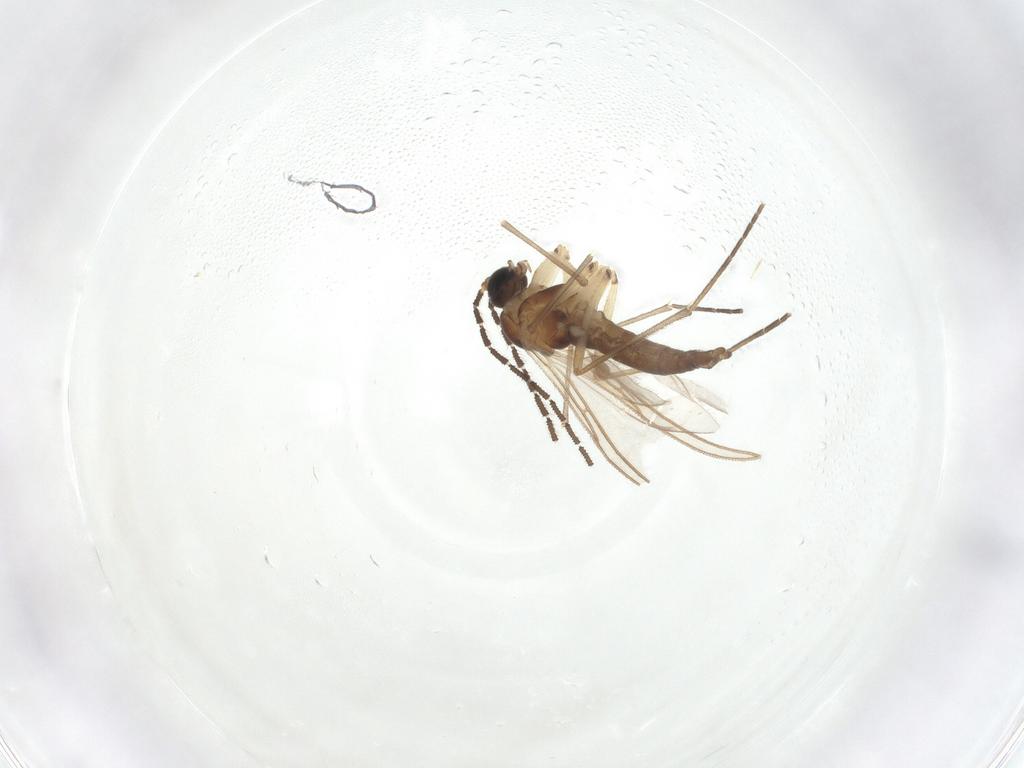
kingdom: Animalia
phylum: Arthropoda
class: Insecta
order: Diptera
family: Sciaridae
